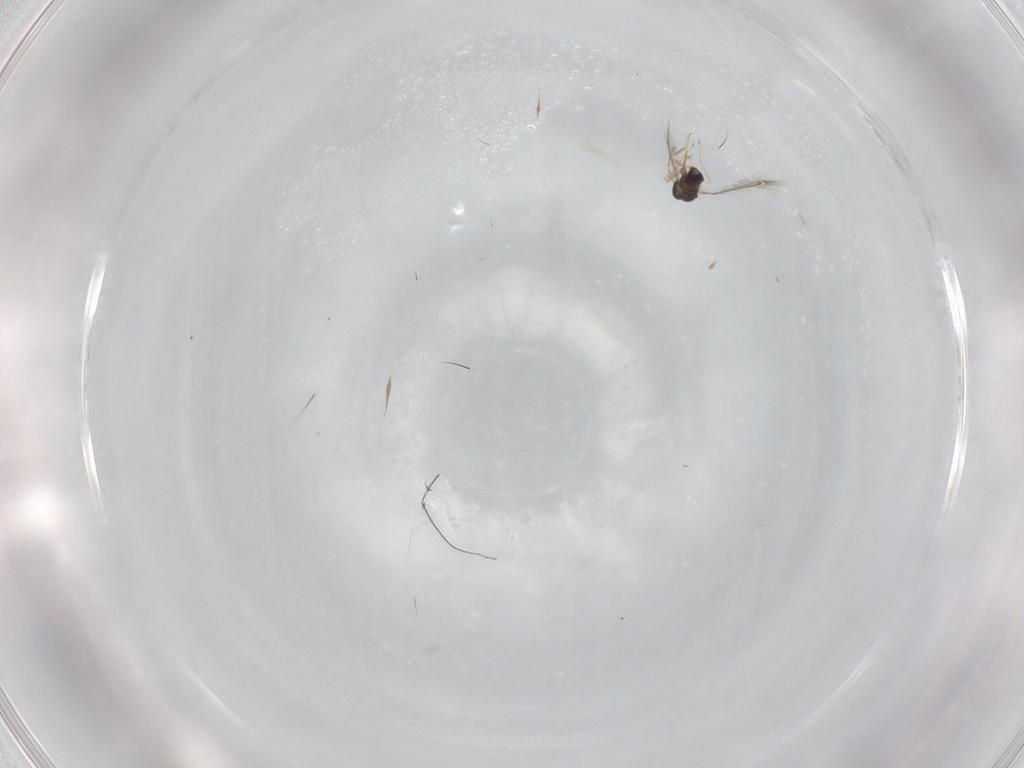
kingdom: Animalia
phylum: Arthropoda
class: Insecta
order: Hymenoptera
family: Mymaridae
